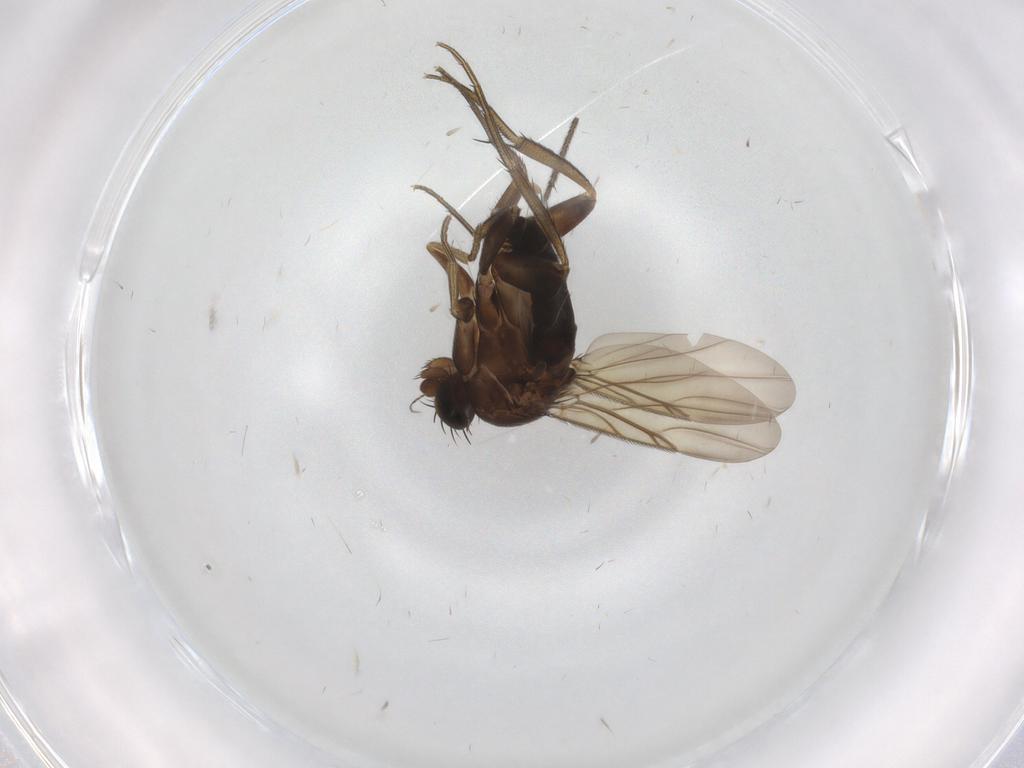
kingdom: Animalia
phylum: Arthropoda
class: Insecta
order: Diptera
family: Phoridae
